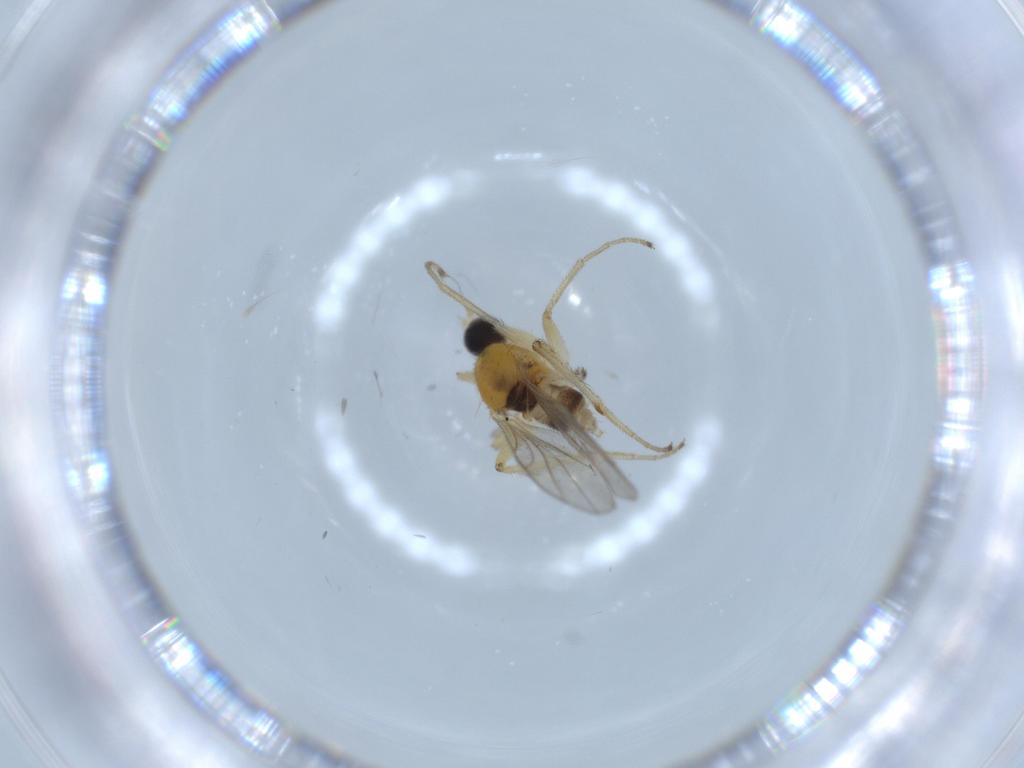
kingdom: Animalia
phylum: Arthropoda
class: Insecta
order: Diptera
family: Hybotidae
